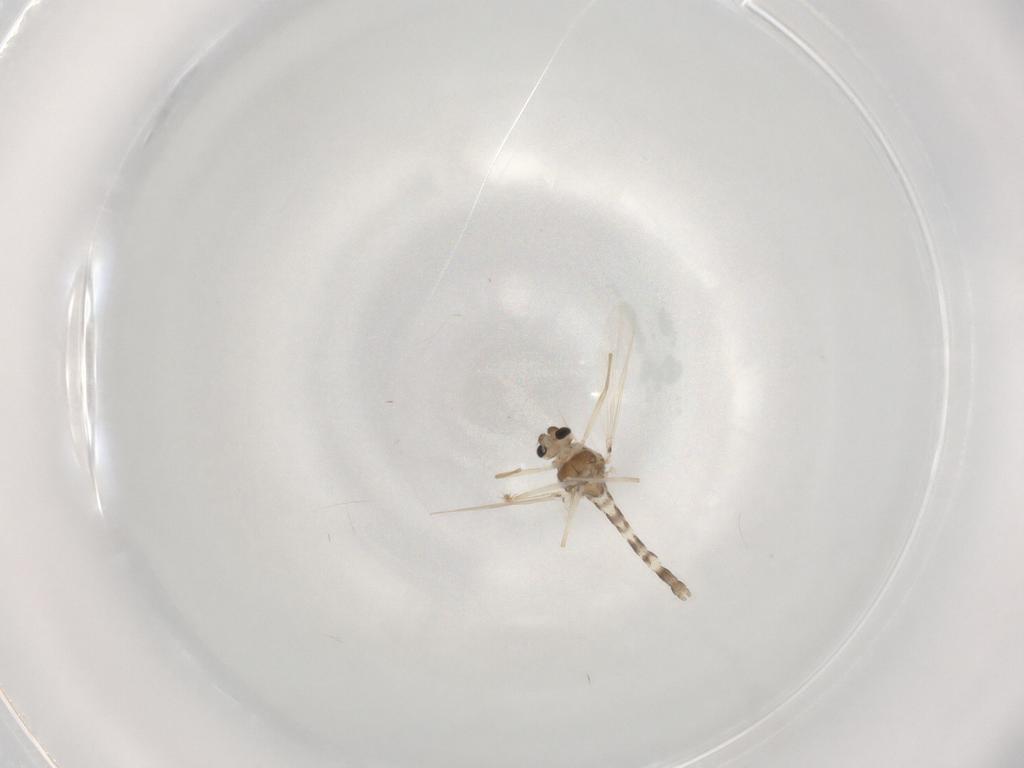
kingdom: Animalia
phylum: Arthropoda
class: Insecta
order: Diptera
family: Chironomidae
